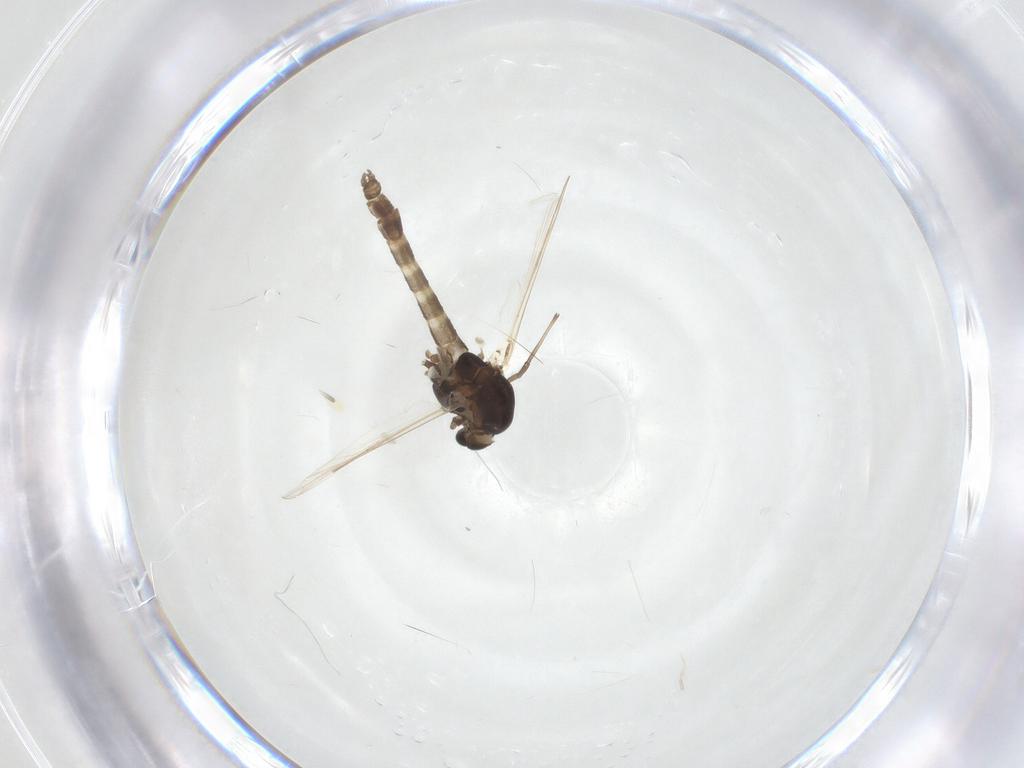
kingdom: Animalia
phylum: Arthropoda
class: Insecta
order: Diptera
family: Chironomidae
